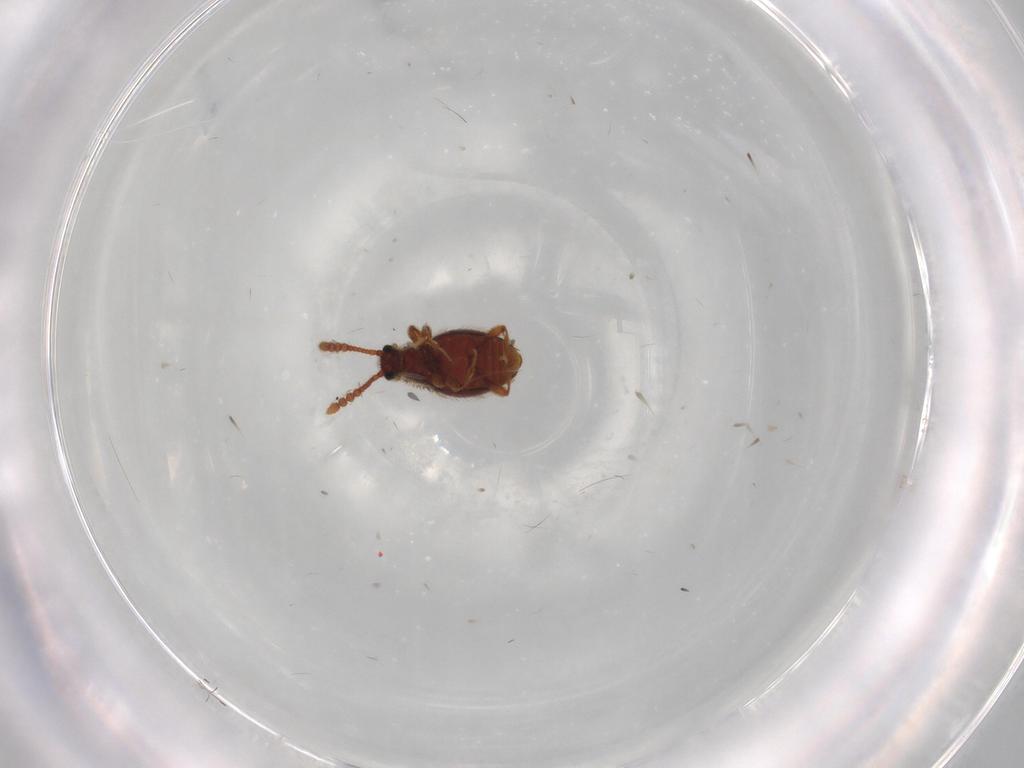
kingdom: Animalia
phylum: Arthropoda
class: Insecta
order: Coleoptera
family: Staphylinidae
